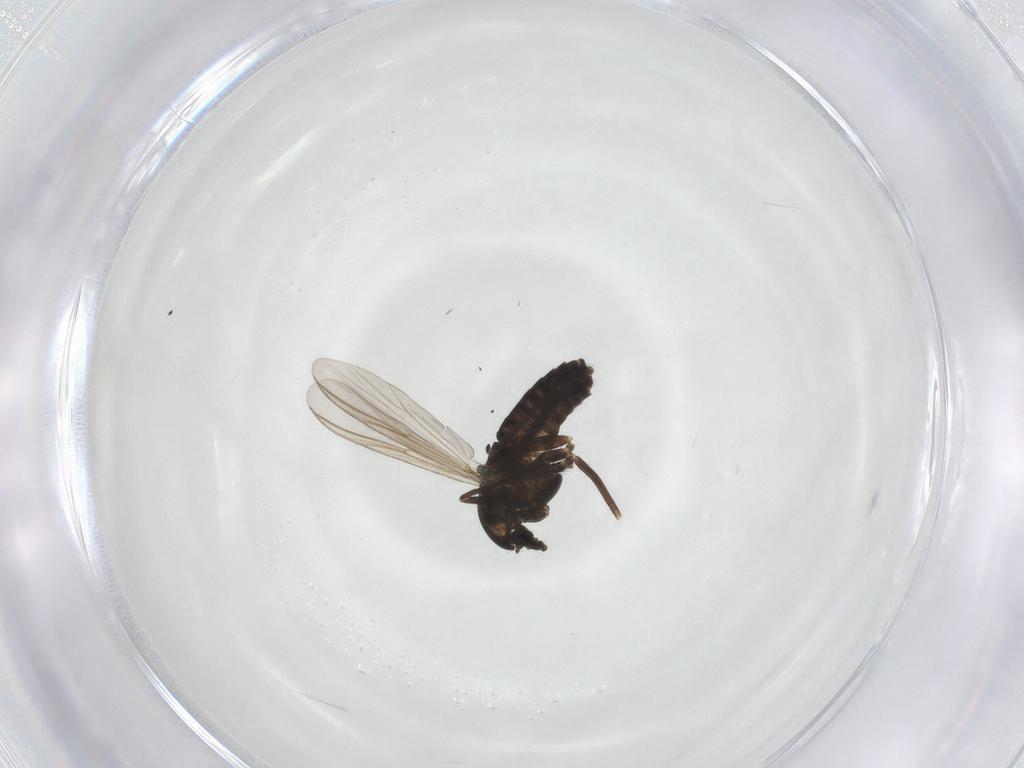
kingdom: Animalia
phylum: Arthropoda
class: Insecta
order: Diptera
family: Chironomidae
